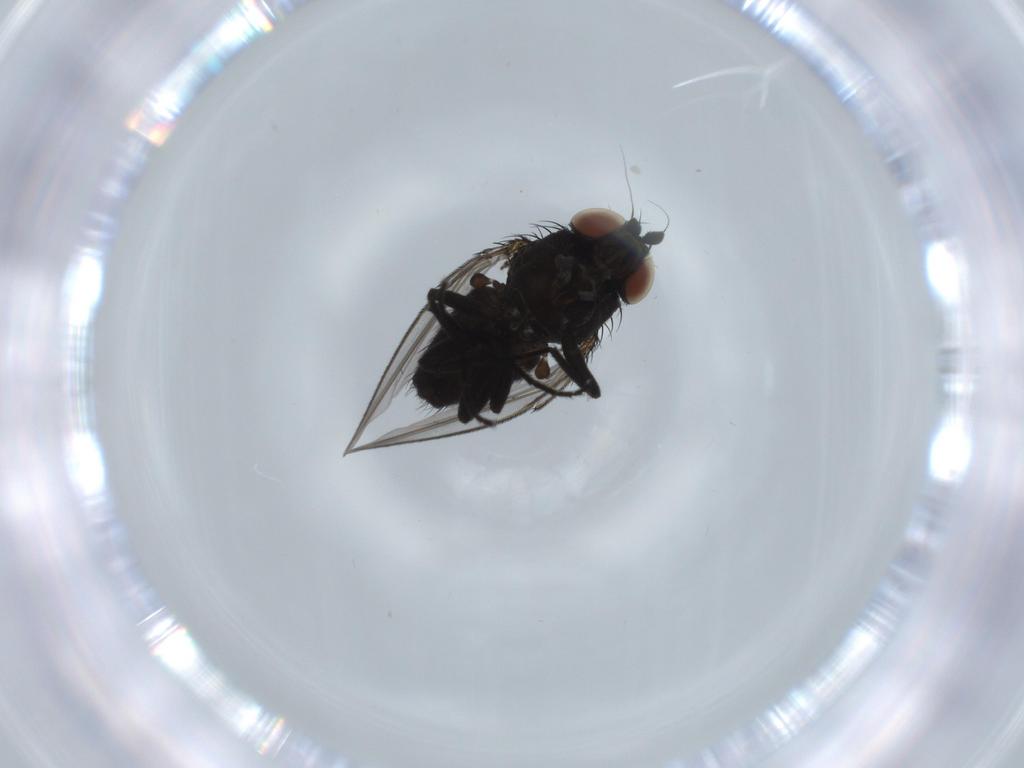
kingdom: Animalia
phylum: Arthropoda
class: Insecta
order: Diptera
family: Milichiidae
